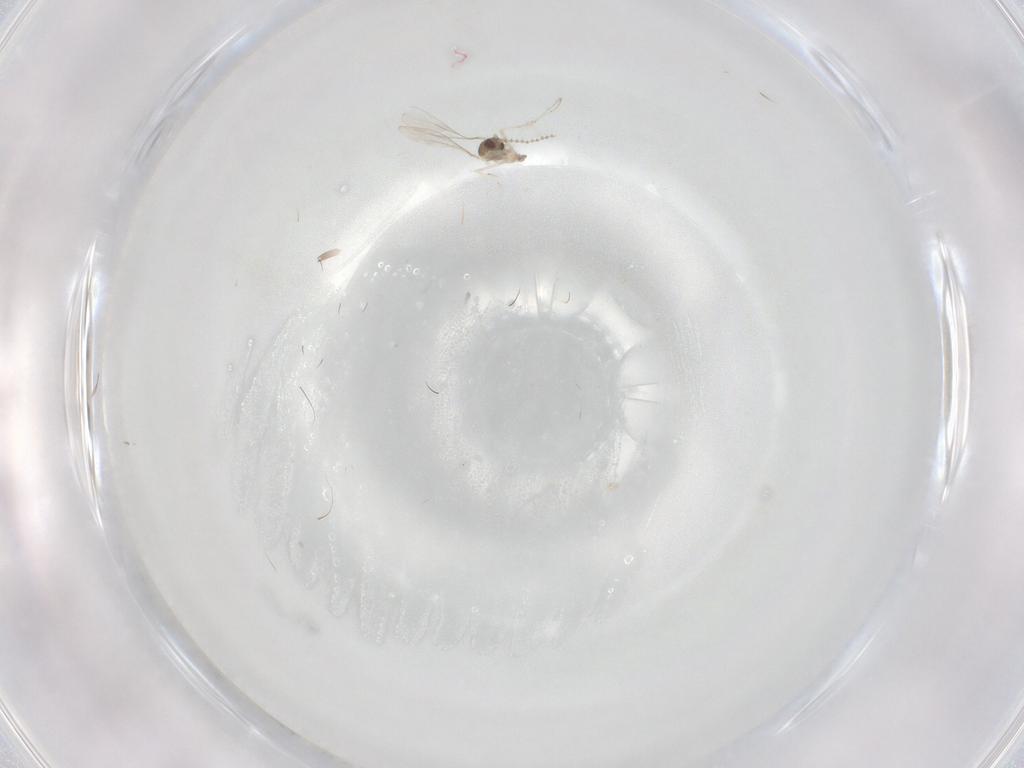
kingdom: Animalia
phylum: Arthropoda
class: Insecta
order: Diptera
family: Cecidomyiidae
